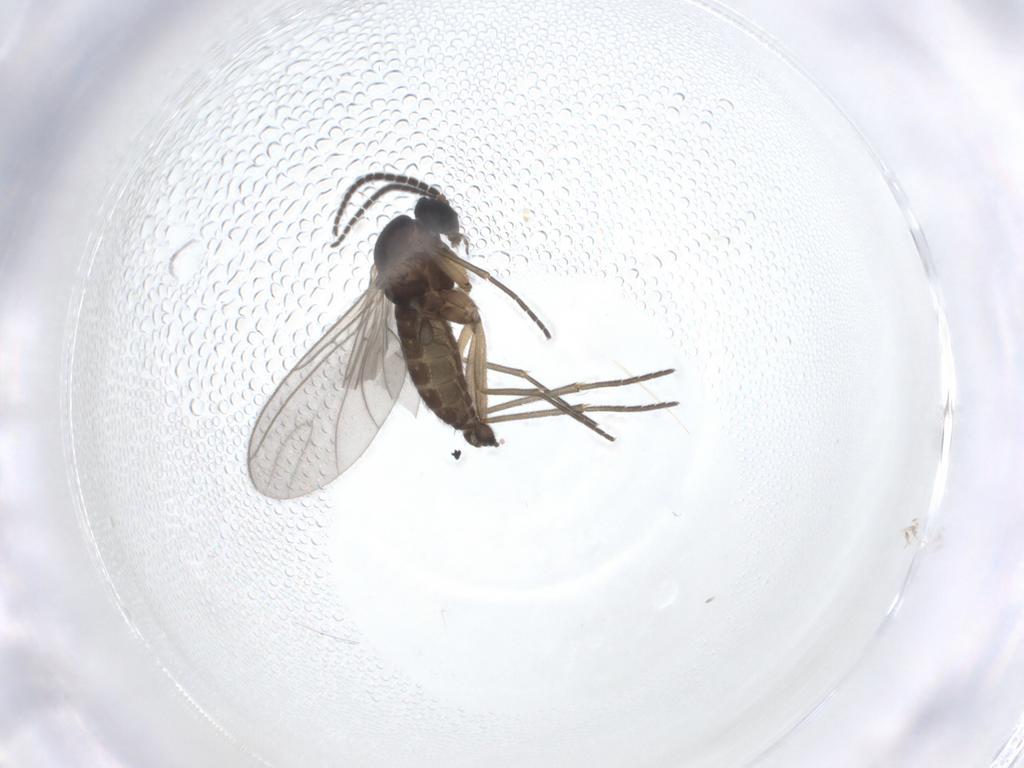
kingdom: Animalia
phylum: Arthropoda
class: Insecta
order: Diptera
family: Sciaridae
